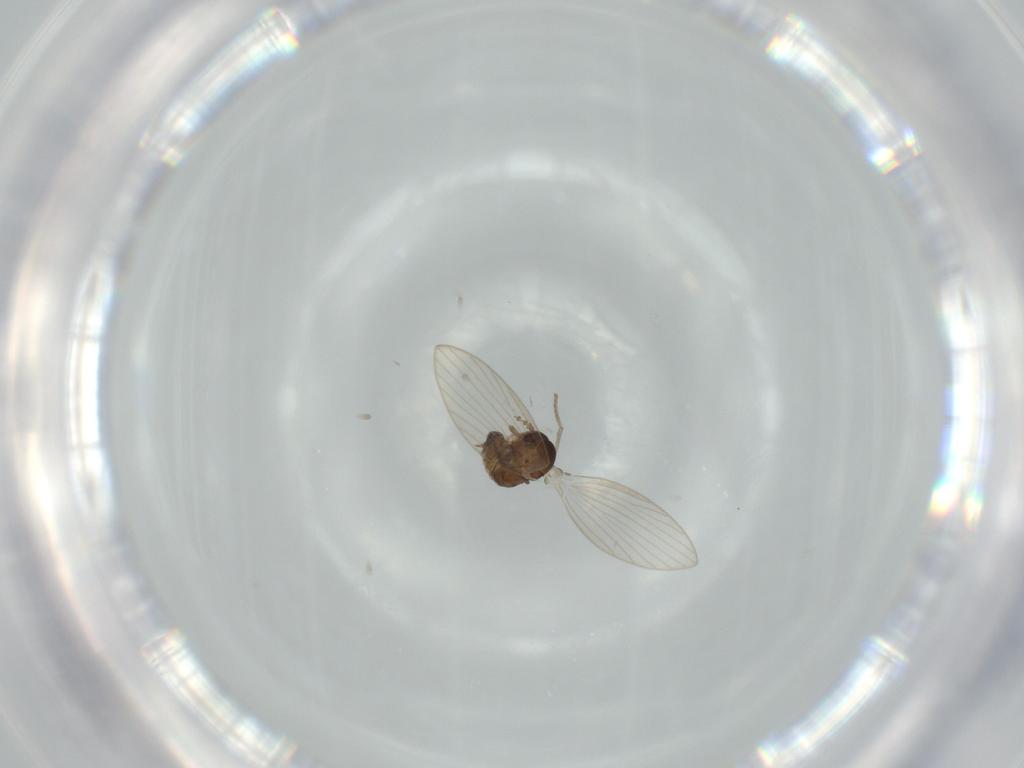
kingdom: Animalia
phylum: Arthropoda
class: Insecta
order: Diptera
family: Psychodidae
